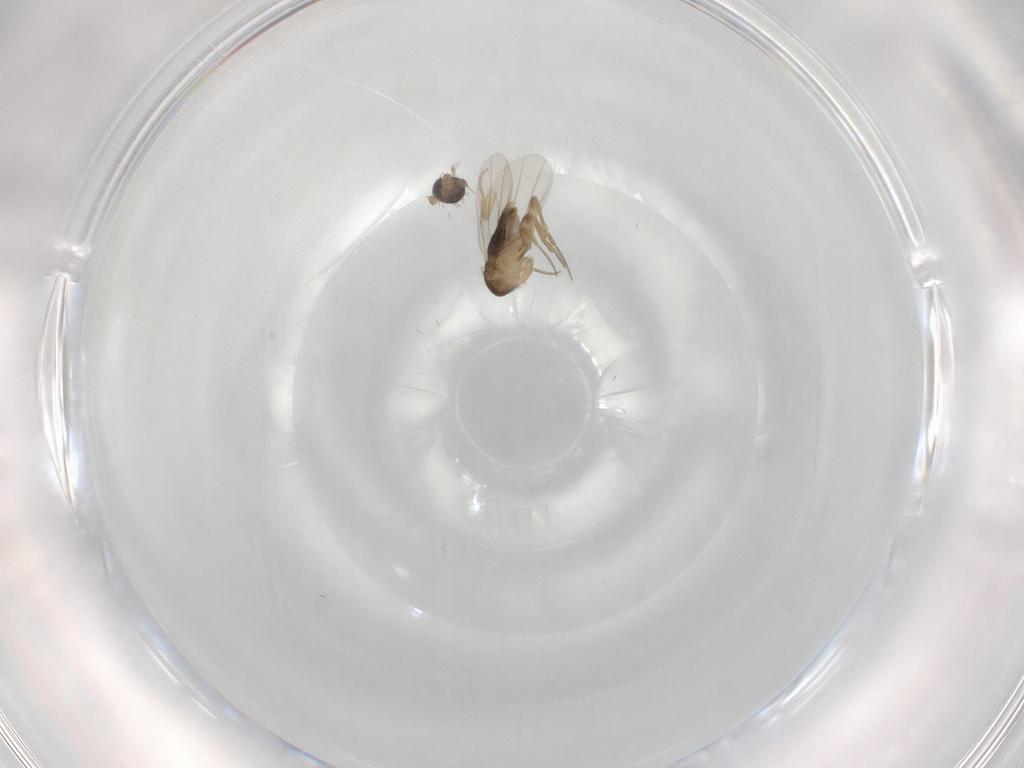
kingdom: Animalia
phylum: Arthropoda
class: Insecta
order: Diptera
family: Phoridae
